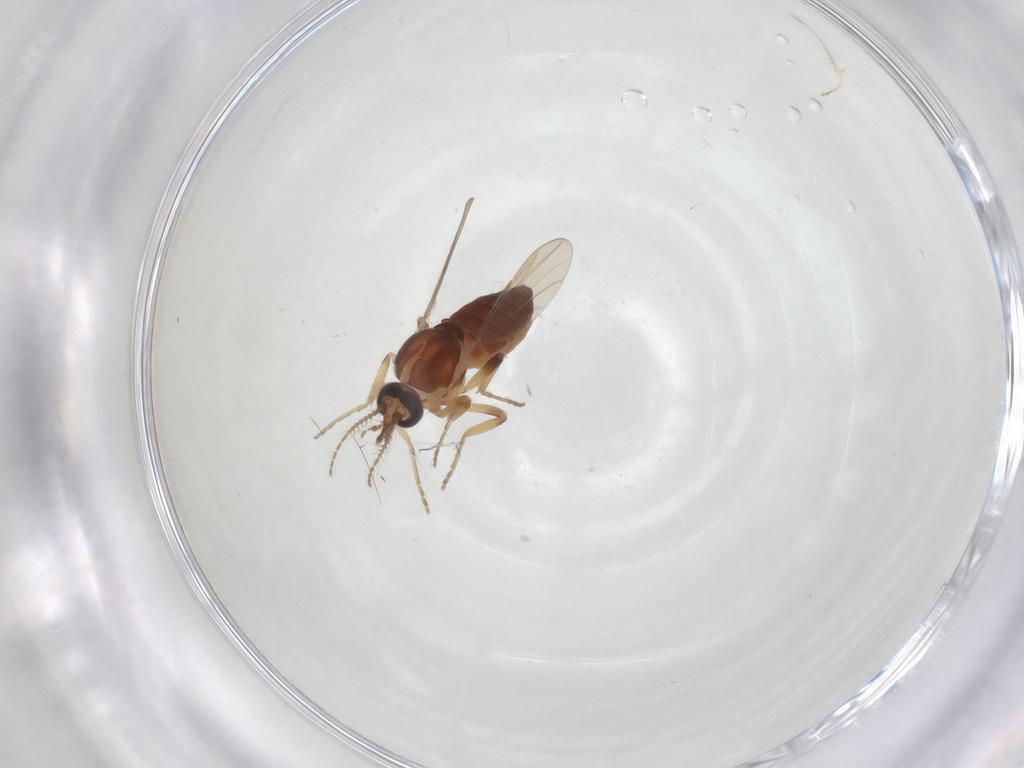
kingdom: Animalia
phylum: Arthropoda
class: Insecta
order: Diptera
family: Ceratopogonidae
